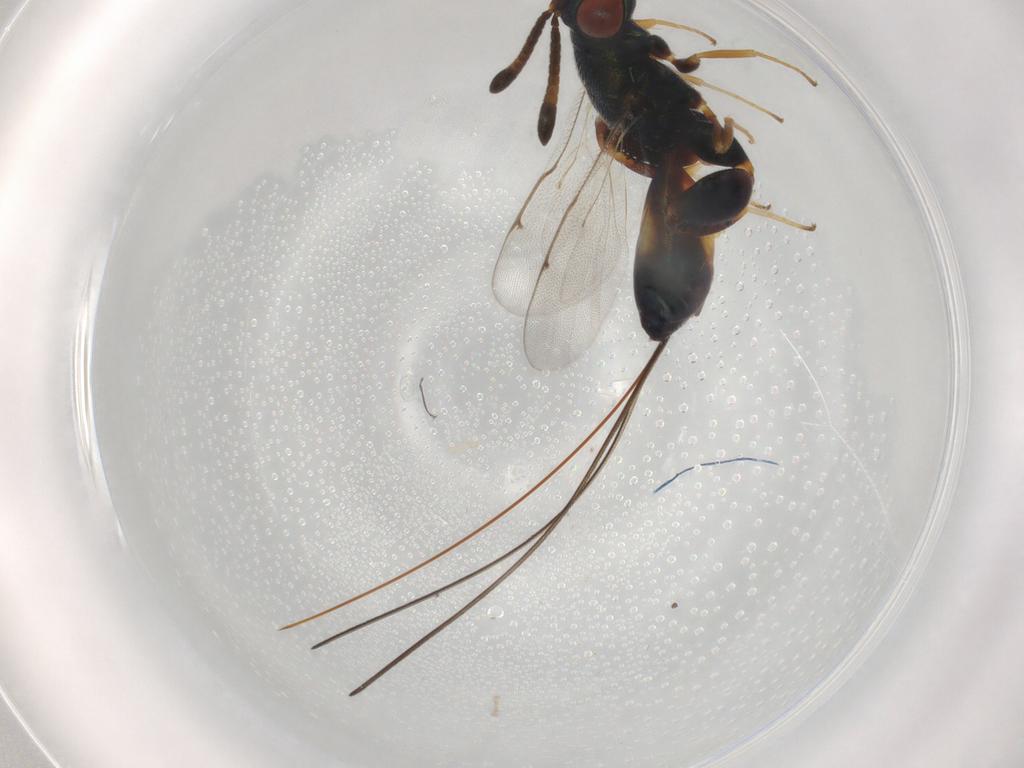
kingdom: Animalia
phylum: Arthropoda
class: Insecta
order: Hymenoptera
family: Torymidae
